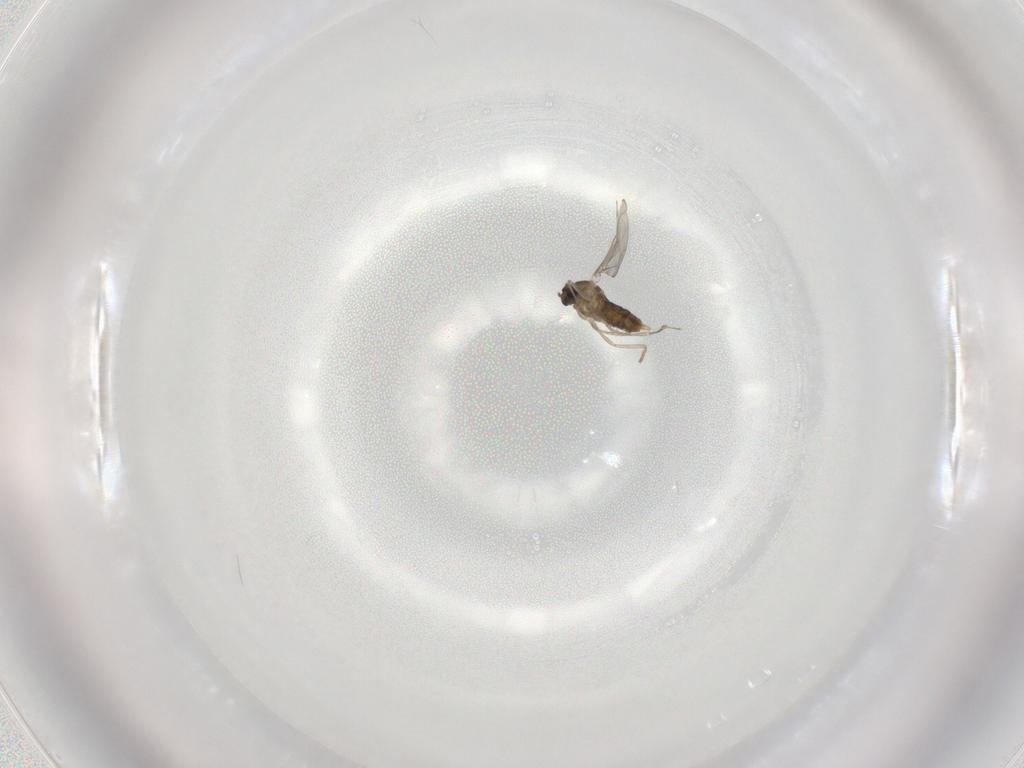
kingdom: Animalia
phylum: Arthropoda
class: Insecta
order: Diptera
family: Cecidomyiidae
